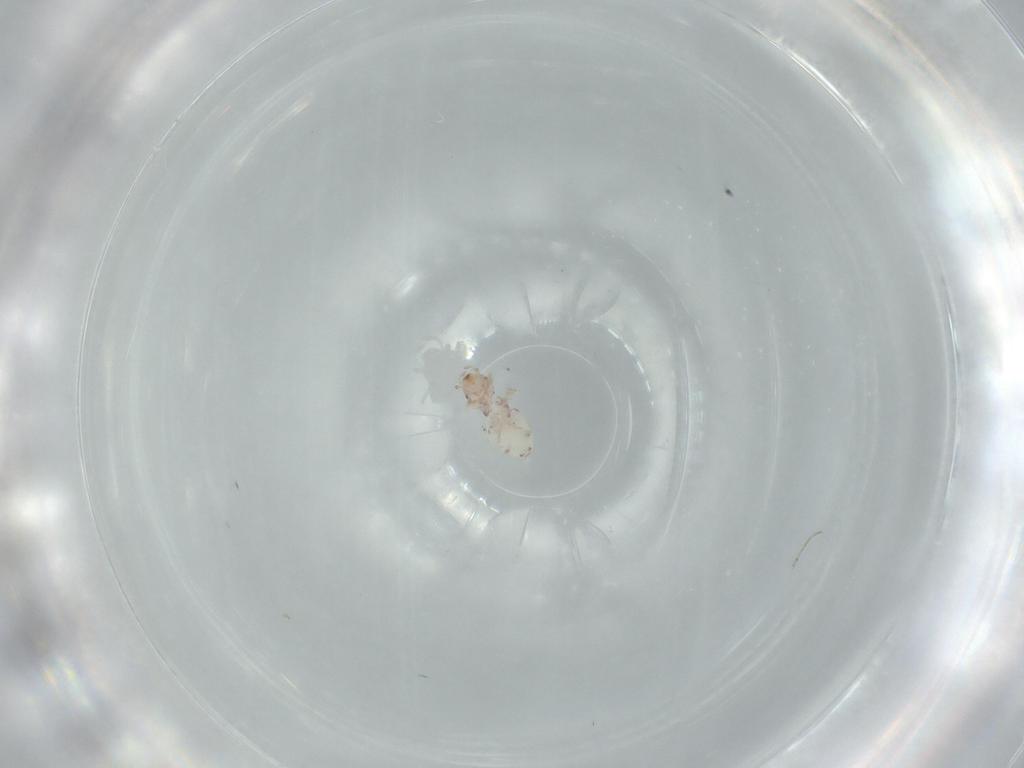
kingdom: Animalia
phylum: Arthropoda
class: Insecta
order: Psocodea
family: Liposcelididae
